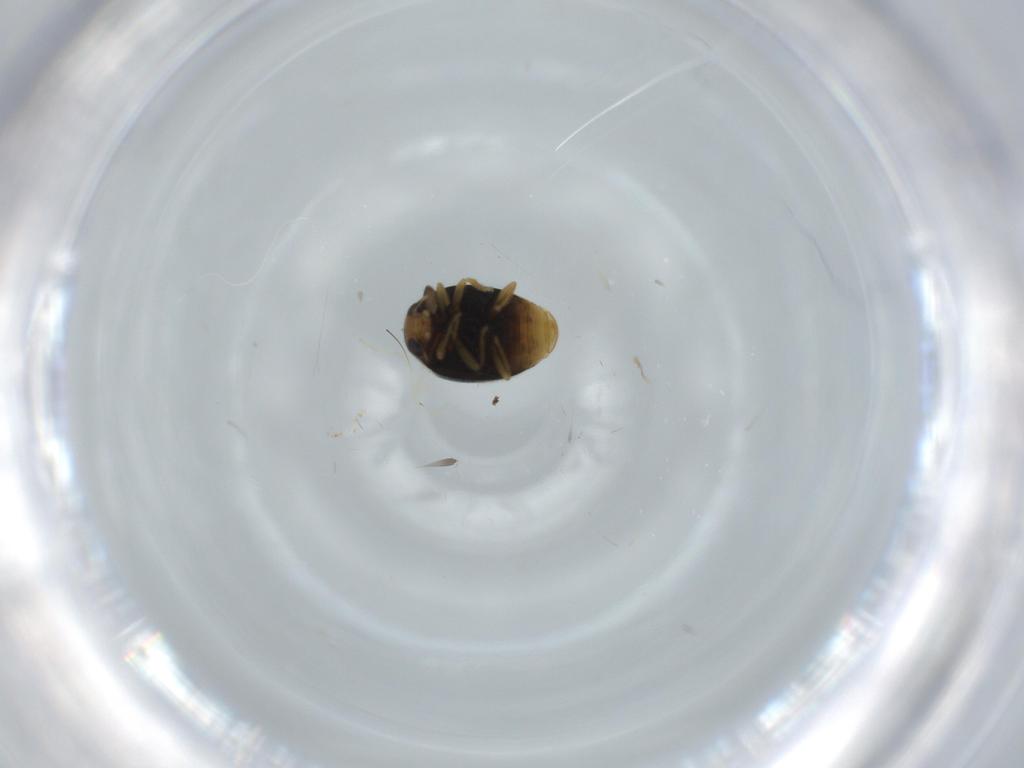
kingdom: Animalia
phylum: Arthropoda
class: Insecta
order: Coleoptera
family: Coccinellidae
